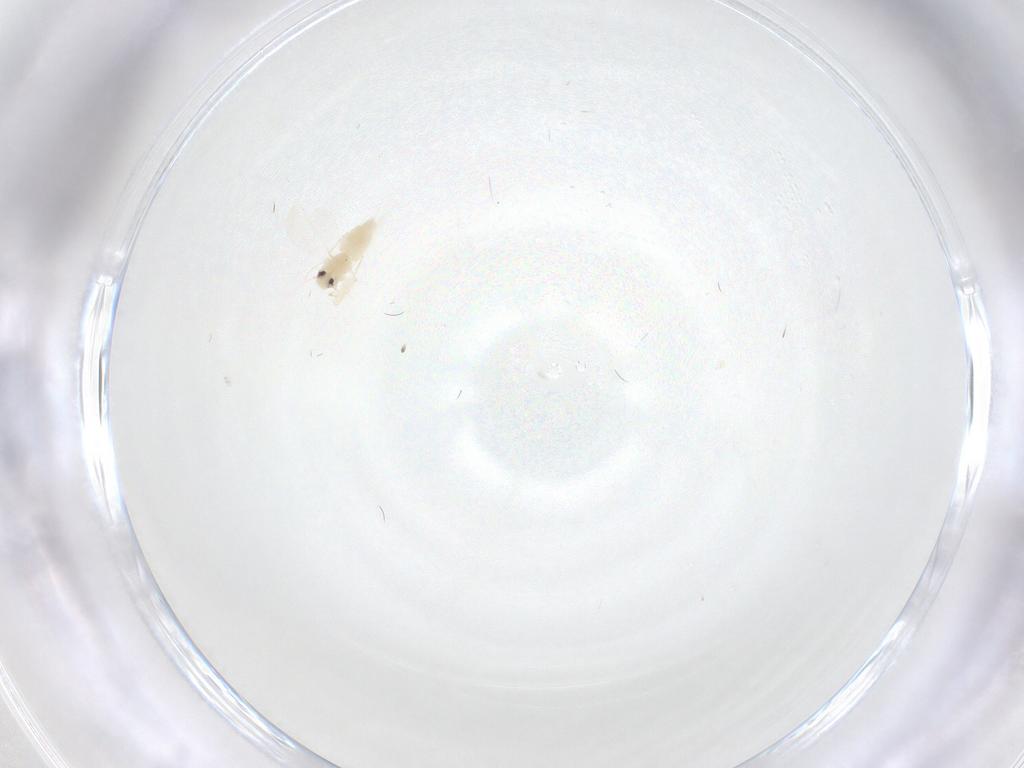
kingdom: Animalia
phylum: Arthropoda
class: Insecta
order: Hemiptera
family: Aleyrodidae
